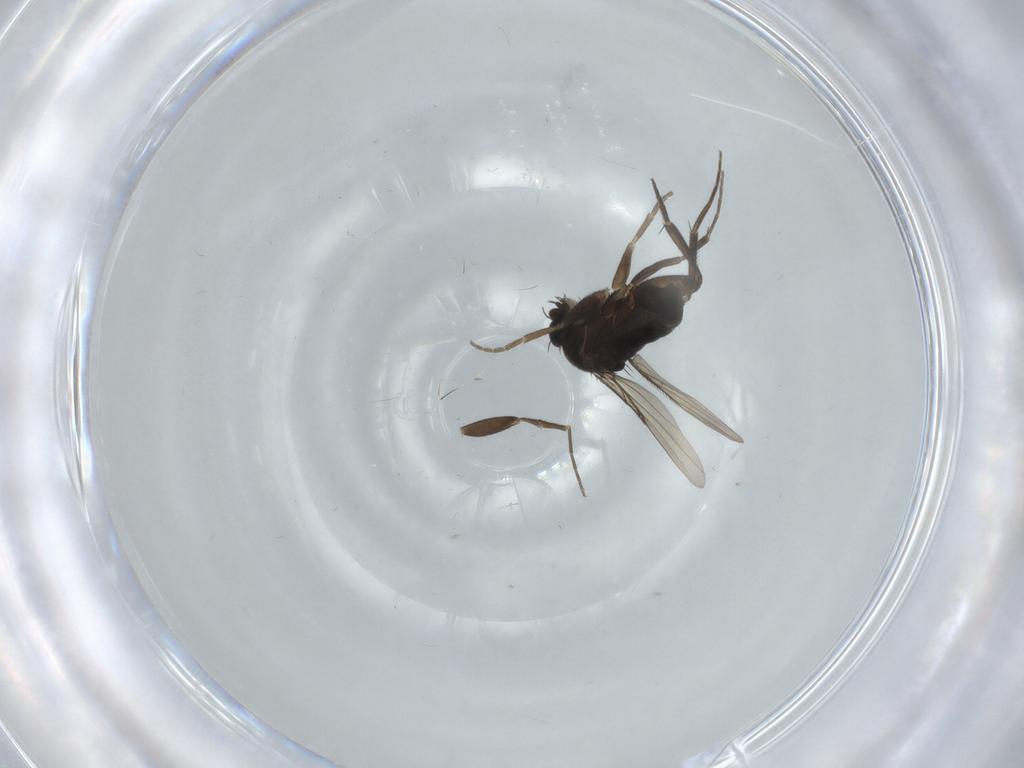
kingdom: Animalia
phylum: Arthropoda
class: Insecta
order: Diptera
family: Phoridae
